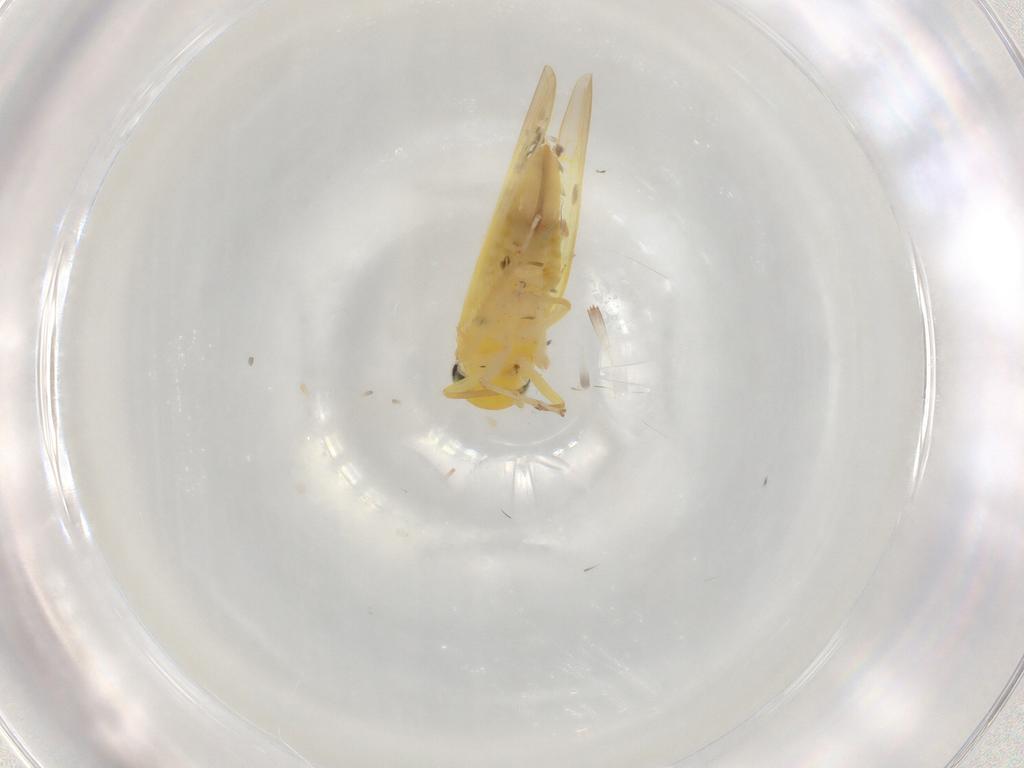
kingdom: Animalia
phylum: Arthropoda
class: Insecta
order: Hemiptera
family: Cicadellidae
